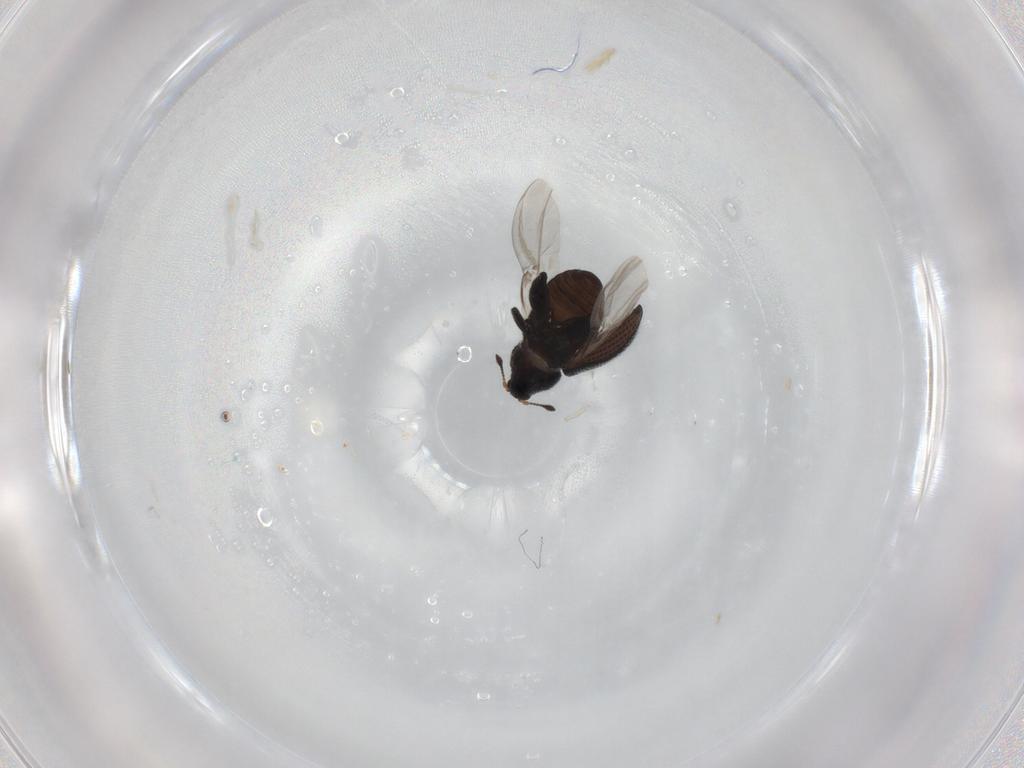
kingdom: Animalia
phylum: Arthropoda
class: Insecta
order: Coleoptera
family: Curculionidae
